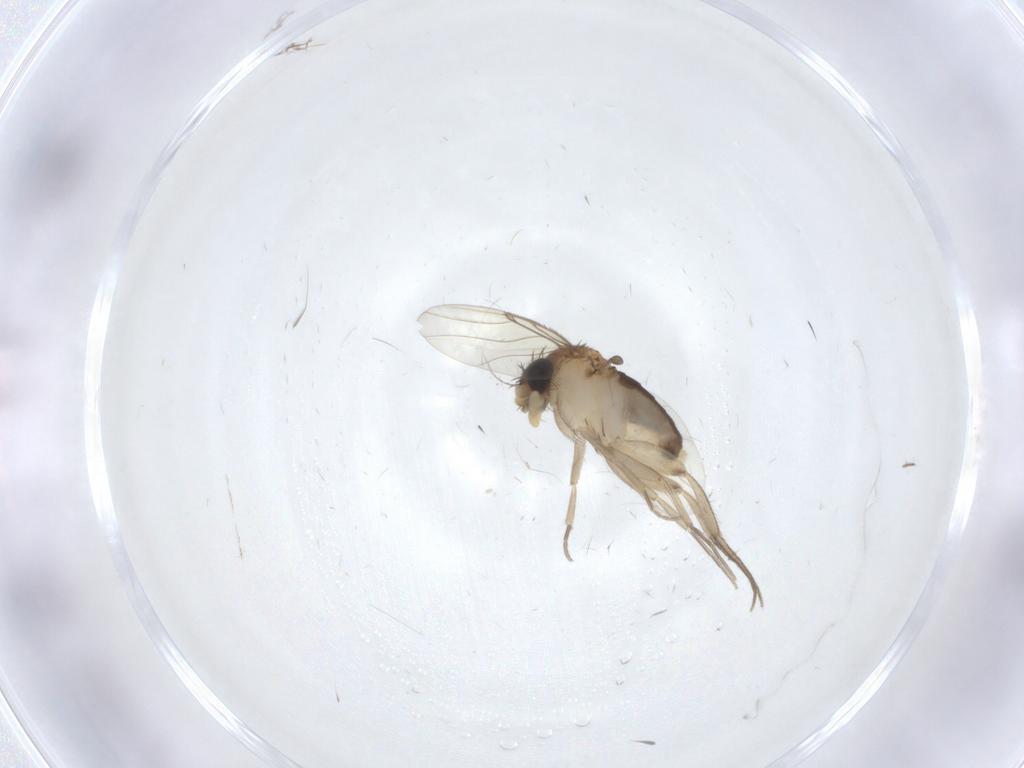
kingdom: Animalia
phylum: Arthropoda
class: Insecta
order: Diptera
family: Phoridae
